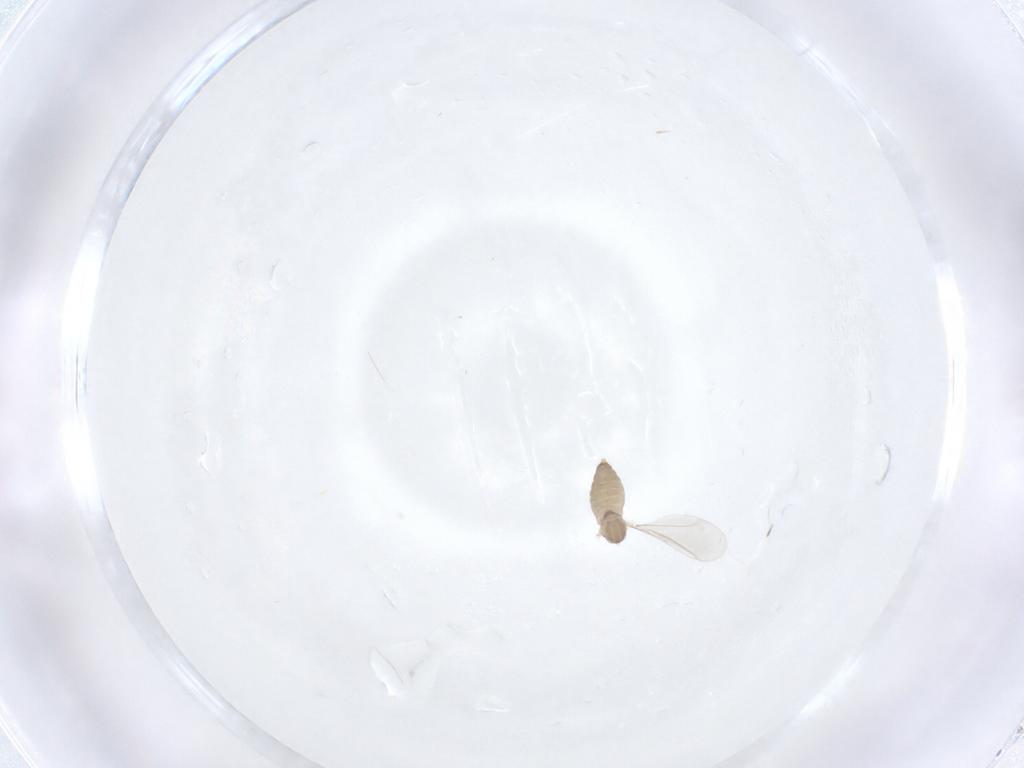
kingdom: Animalia
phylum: Arthropoda
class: Insecta
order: Diptera
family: Cecidomyiidae
